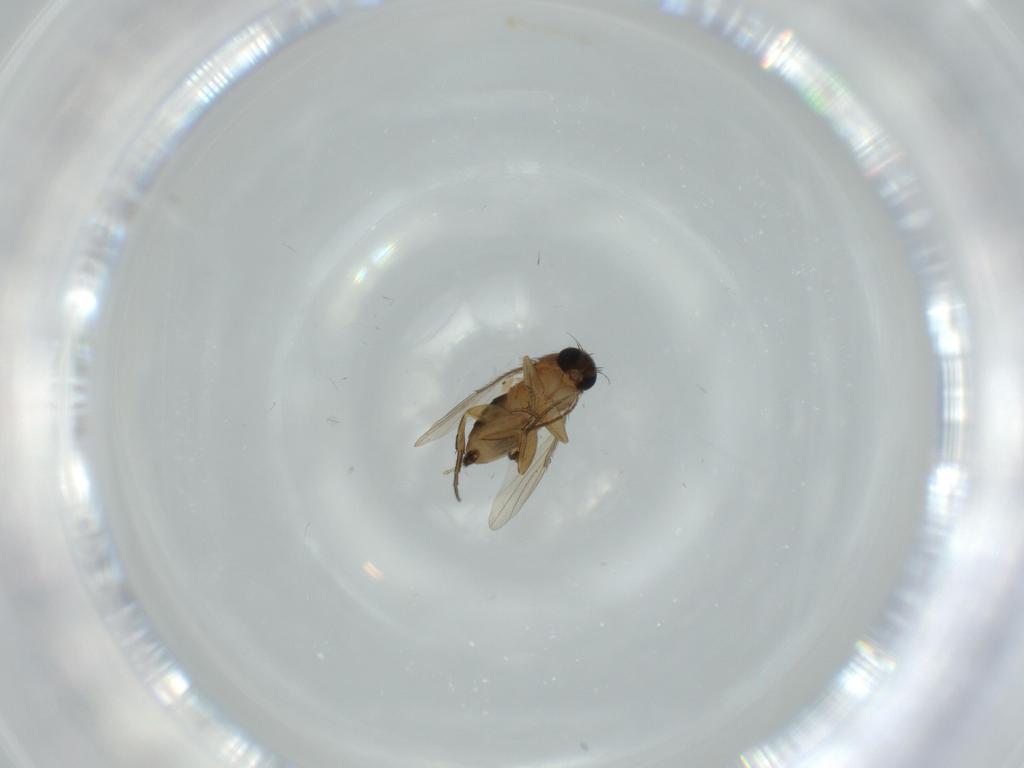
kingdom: Animalia
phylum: Arthropoda
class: Insecta
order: Diptera
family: Phoridae
